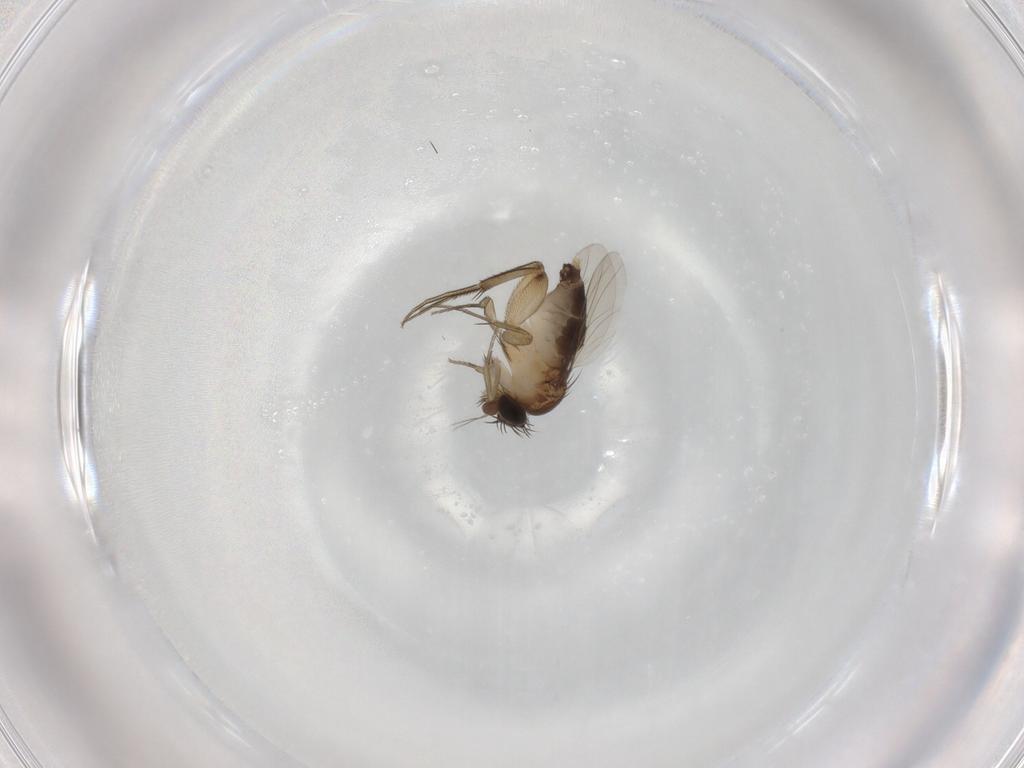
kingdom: Animalia
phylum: Arthropoda
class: Insecta
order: Diptera
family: Phoridae
